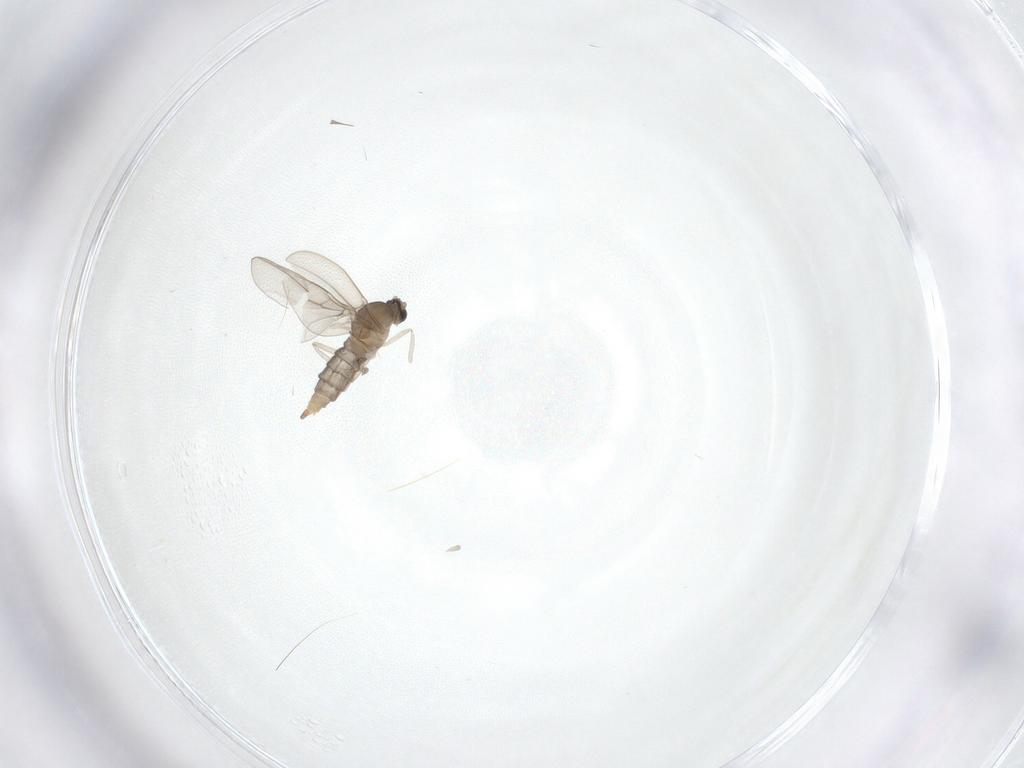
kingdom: Animalia
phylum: Arthropoda
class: Insecta
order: Diptera
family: Cecidomyiidae
